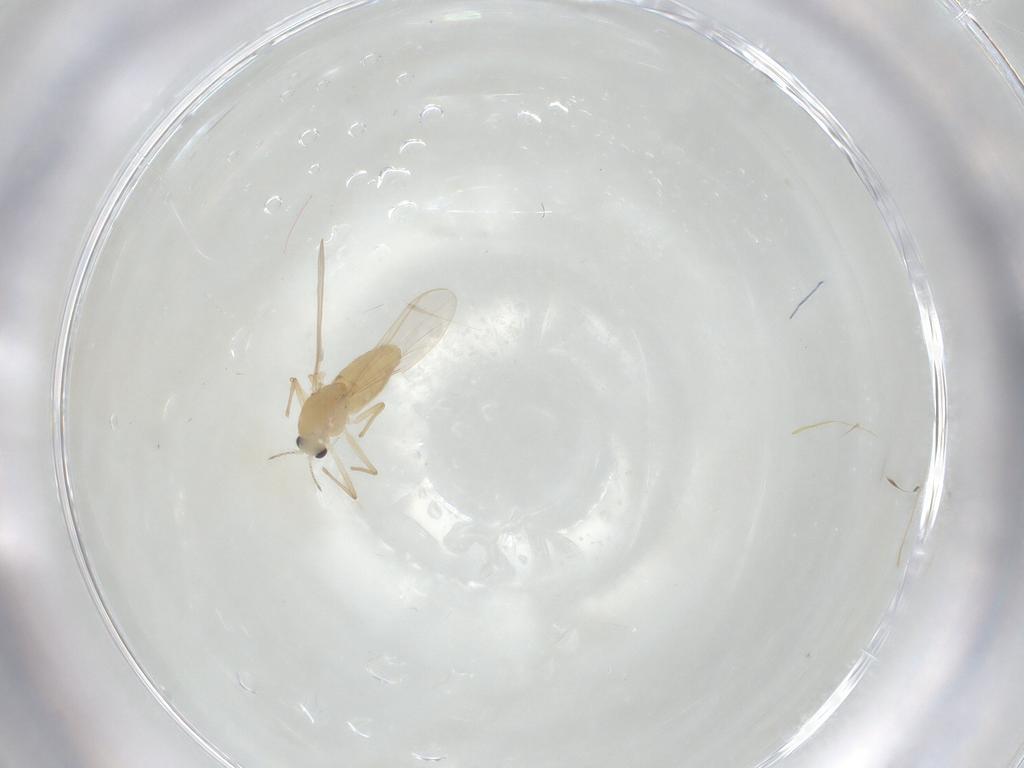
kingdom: Animalia
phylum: Arthropoda
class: Insecta
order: Diptera
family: Chironomidae
